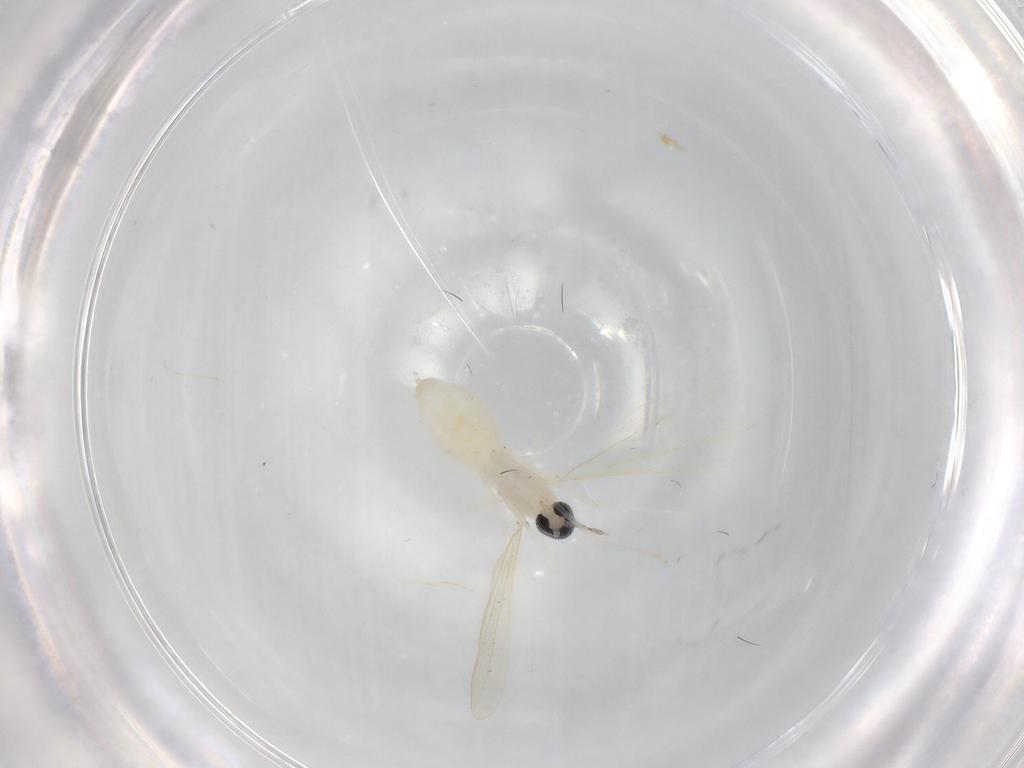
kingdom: Animalia
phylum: Arthropoda
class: Insecta
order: Diptera
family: Cecidomyiidae
